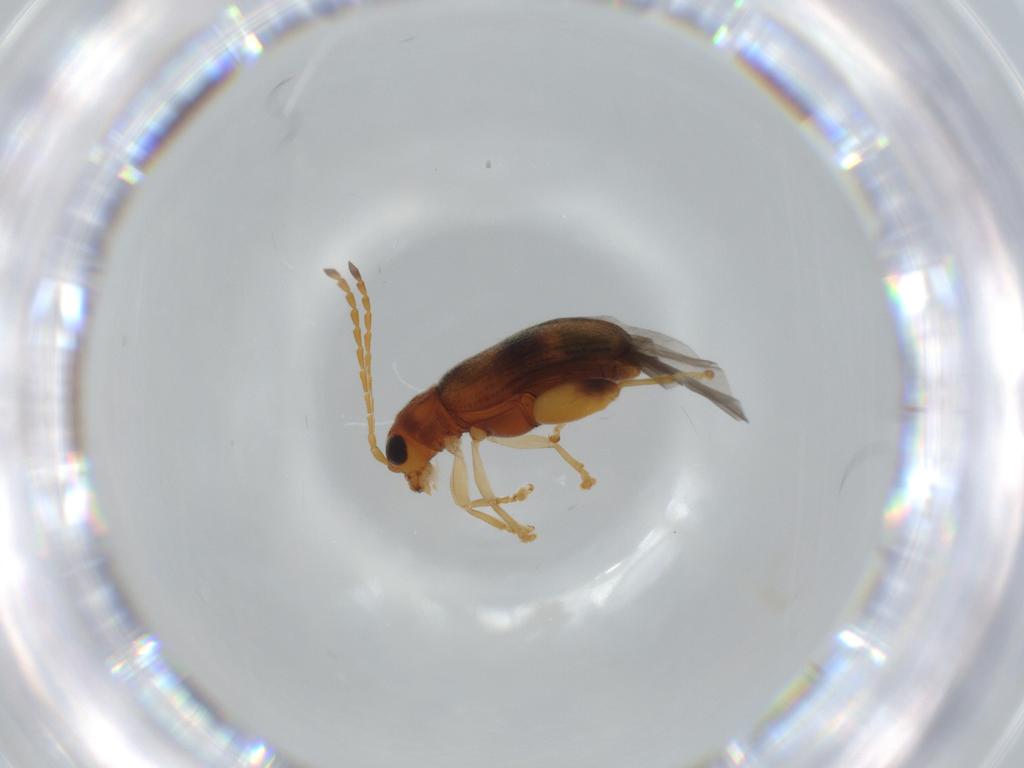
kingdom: Animalia
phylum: Arthropoda
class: Insecta
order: Coleoptera
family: Chrysomelidae
